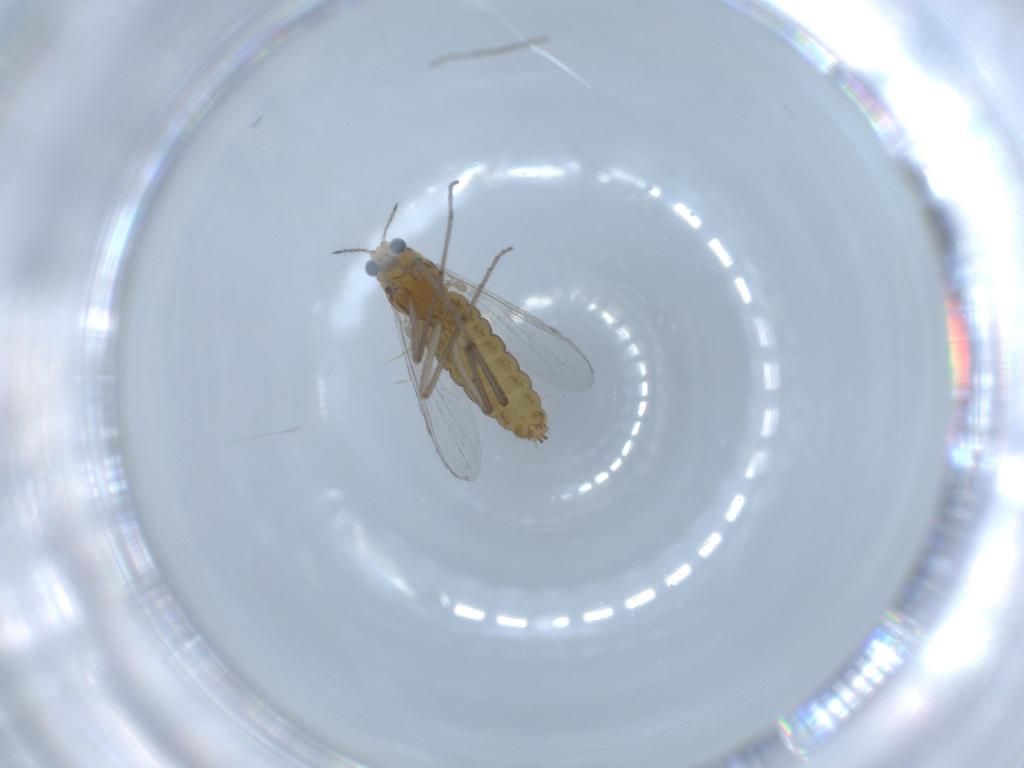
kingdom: Animalia
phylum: Arthropoda
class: Insecta
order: Diptera
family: Chironomidae
